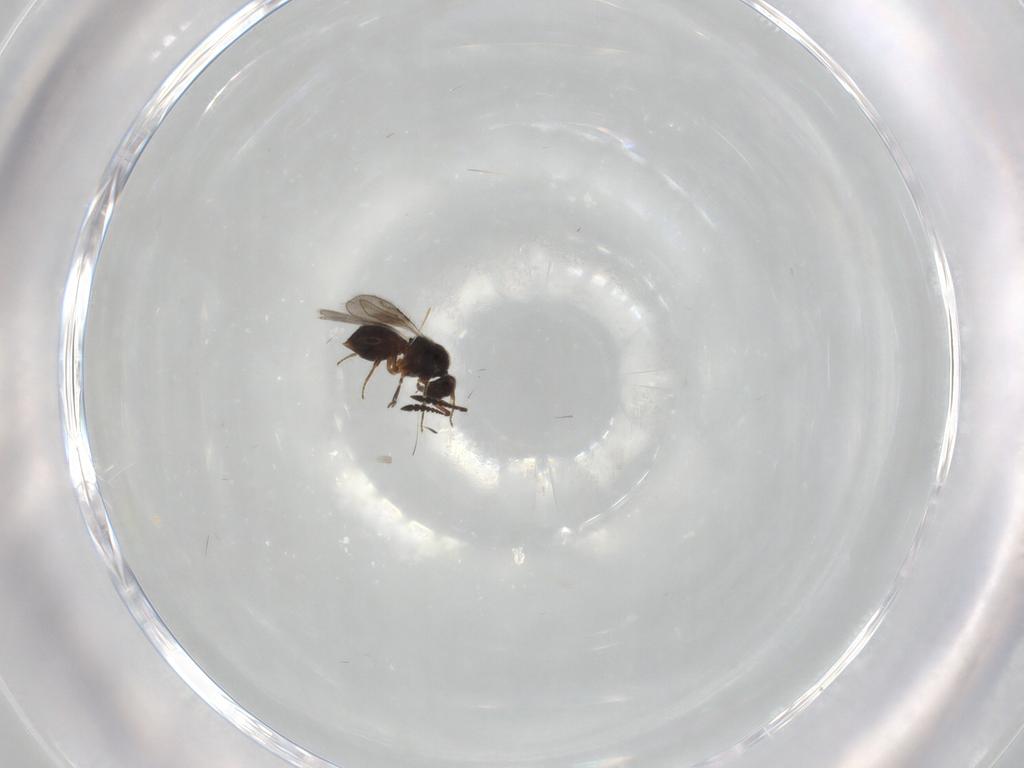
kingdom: Animalia
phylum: Arthropoda
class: Insecta
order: Hymenoptera
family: Ceraphronidae
